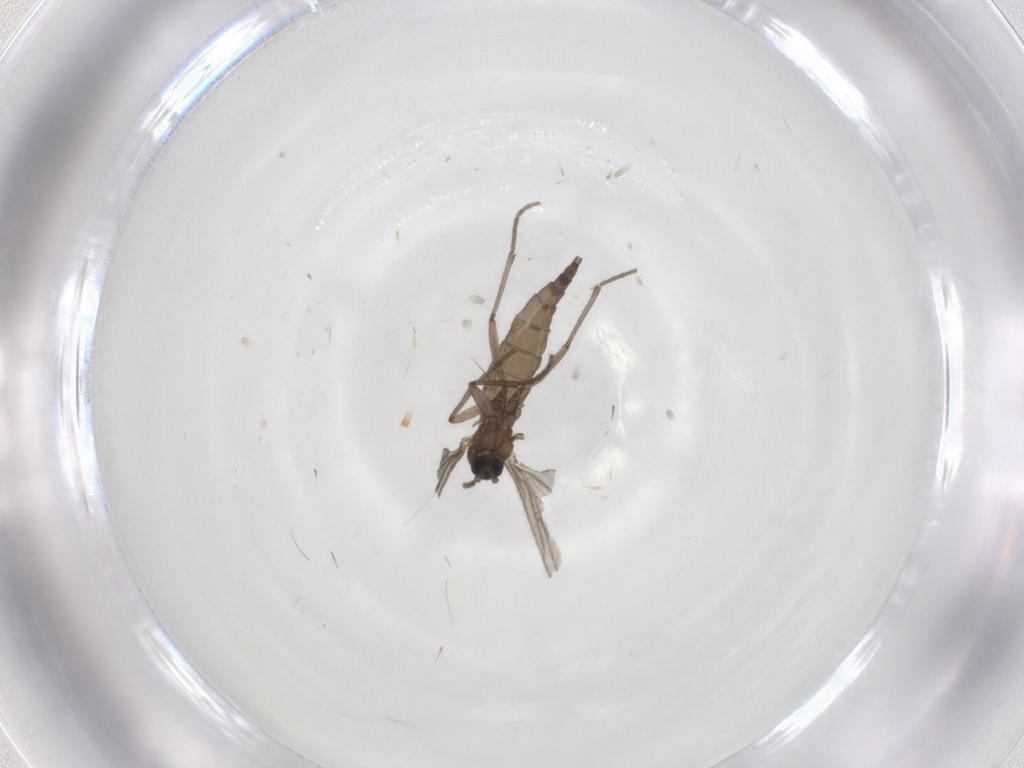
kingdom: Animalia
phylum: Arthropoda
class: Insecta
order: Diptera
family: Sciaridae
